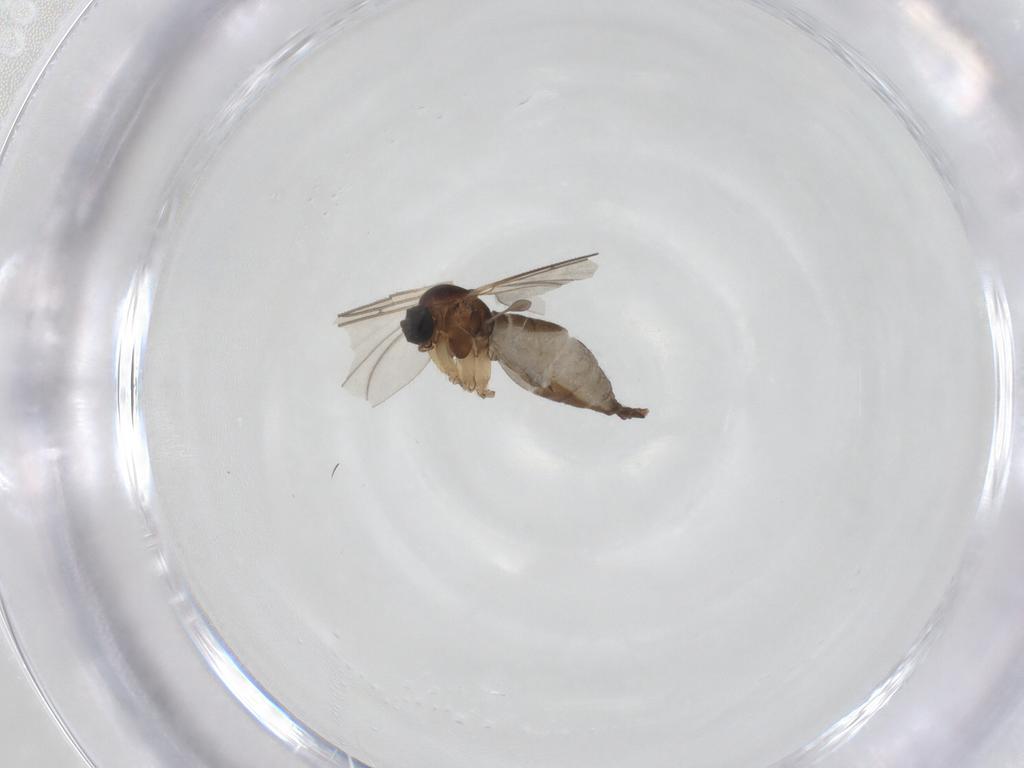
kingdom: Animalia
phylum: Arthropoda
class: Insecta
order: Diptera
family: Sciaridae
